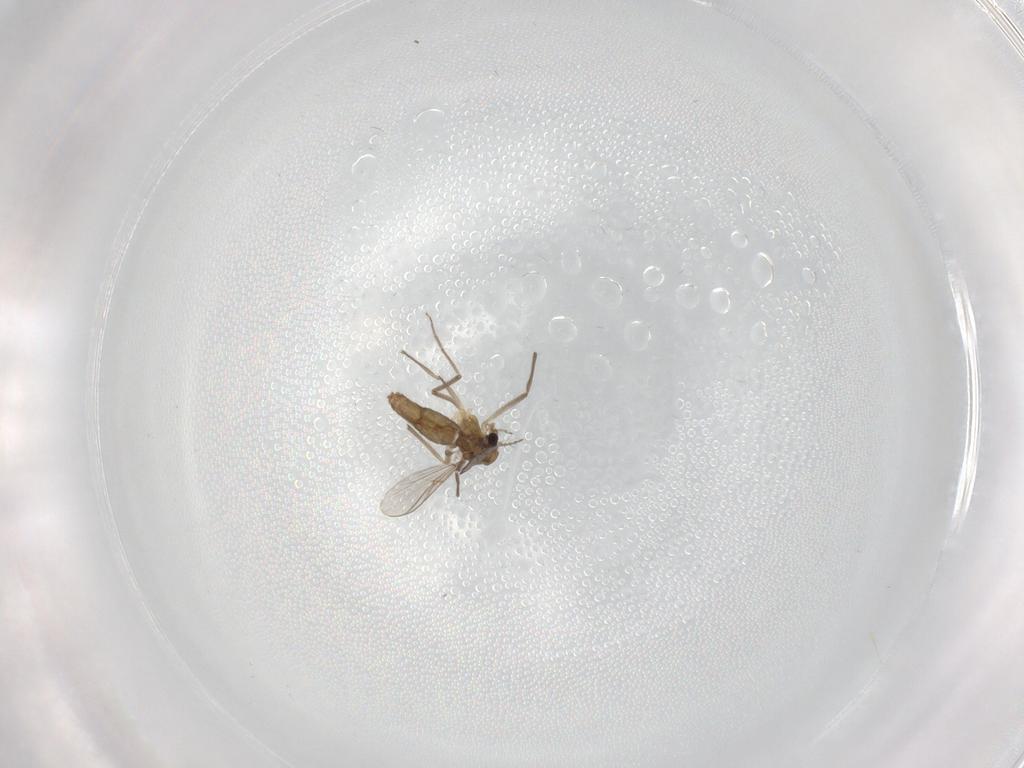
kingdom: Animalia
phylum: Arthropoda
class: Insecta
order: Diptera
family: Chironomidae
